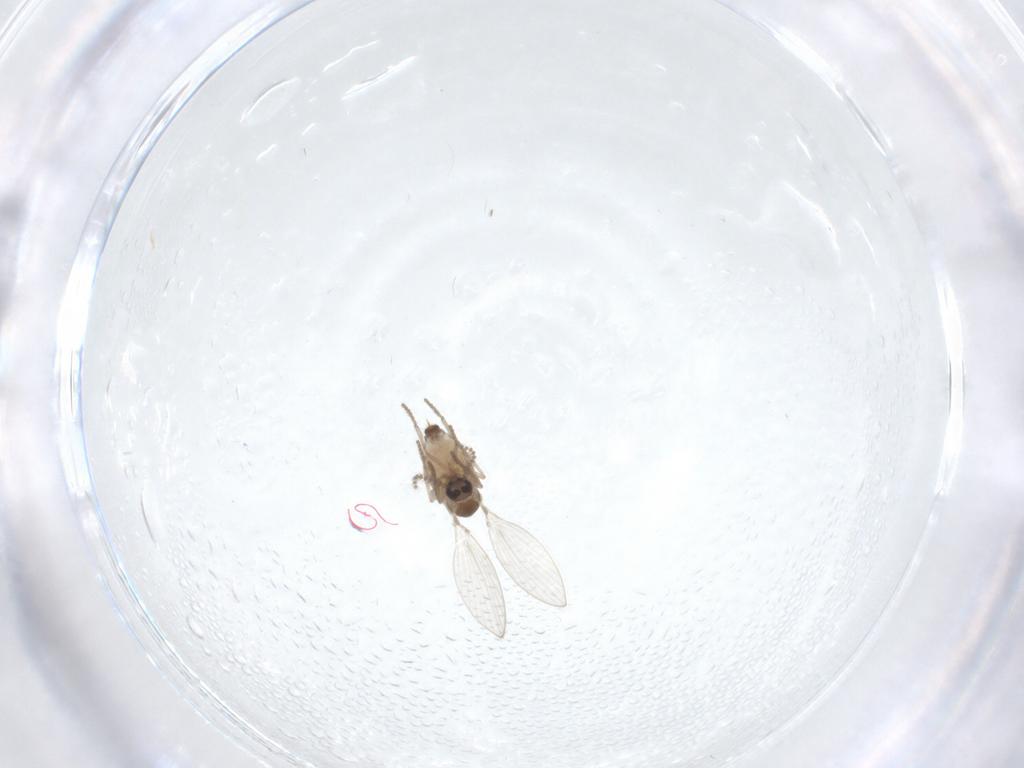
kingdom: Animalia
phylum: Arthropoda
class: Insecta
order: Diptera
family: Psychodidae
